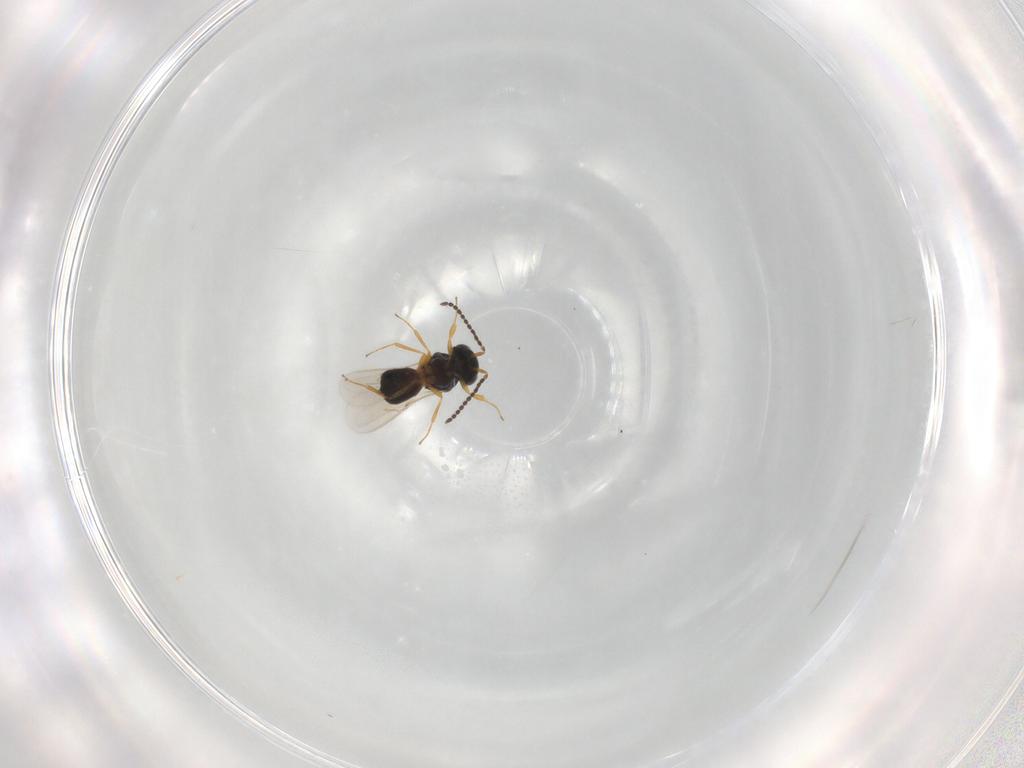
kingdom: Animalia
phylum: Arthropoda
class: Insecta
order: Hymenoptera
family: Scelionidae
